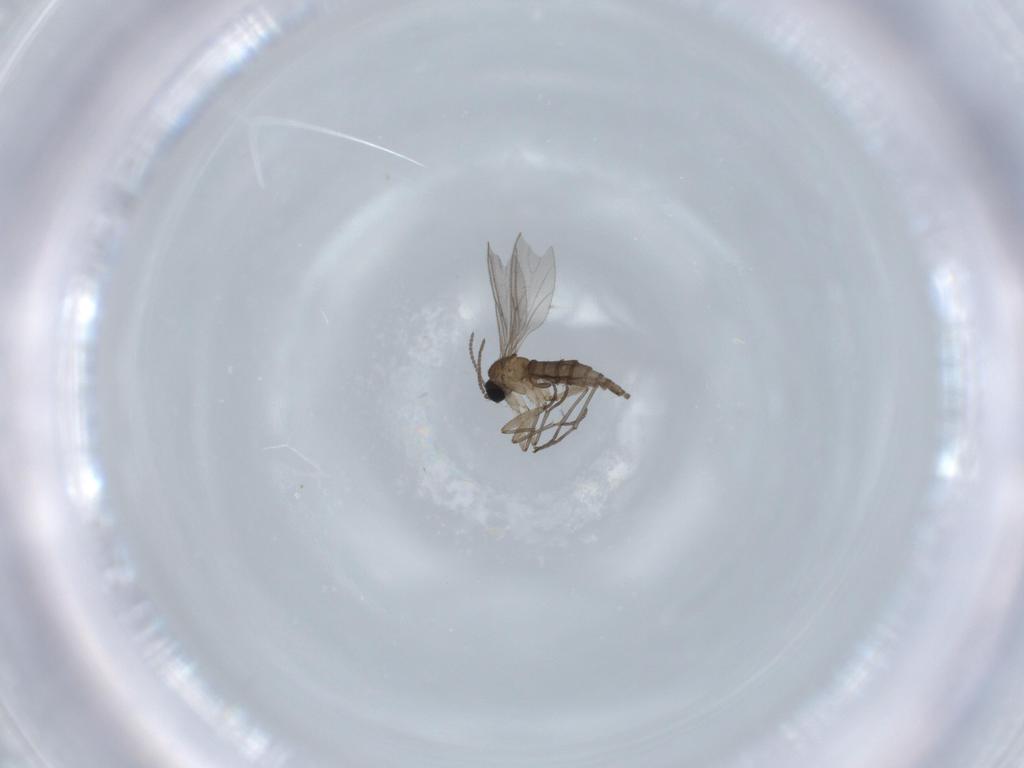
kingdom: Animalia
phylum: Arthropoda
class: Insecta
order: Diptera
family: Sciaridae
